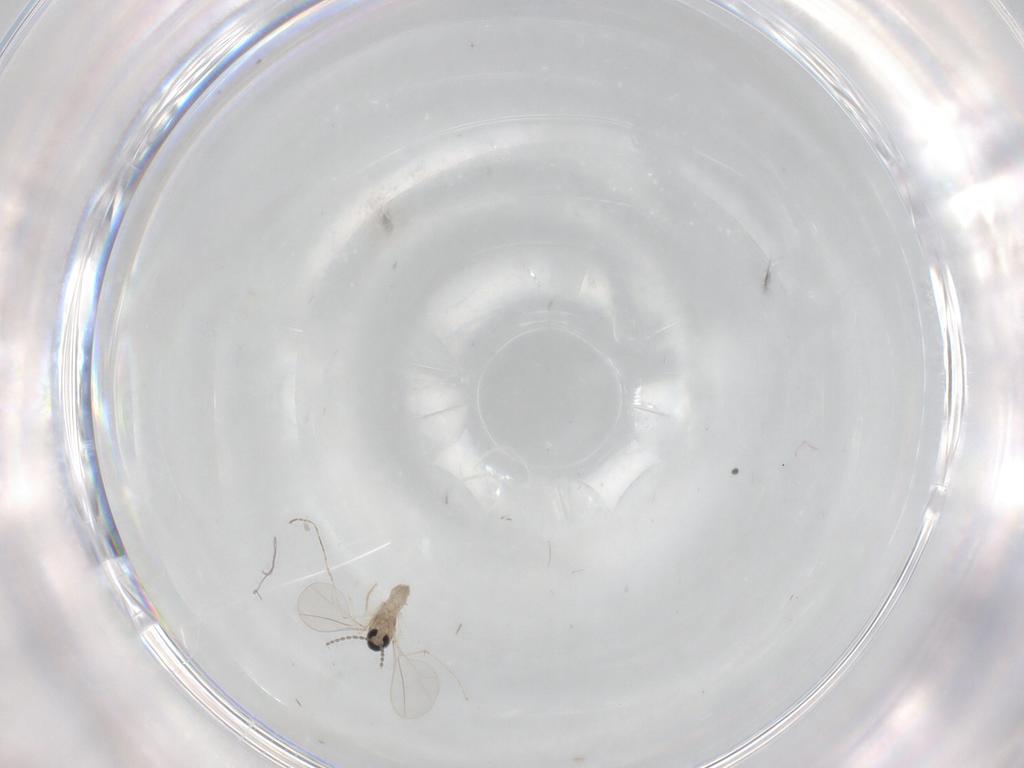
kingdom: Animalia
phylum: Arthropoda
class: Insecta
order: Diptera
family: Cecidomyiidae
